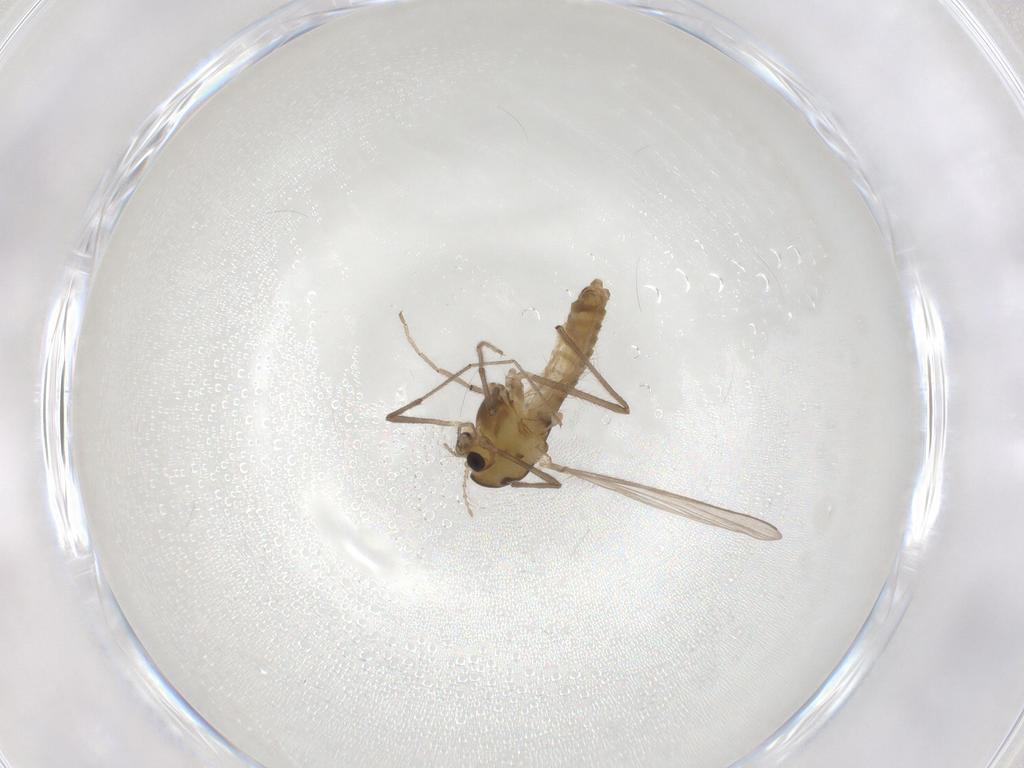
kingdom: Animalia
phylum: Arthropoda
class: Insecta
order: Diptera
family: Chironomidae
